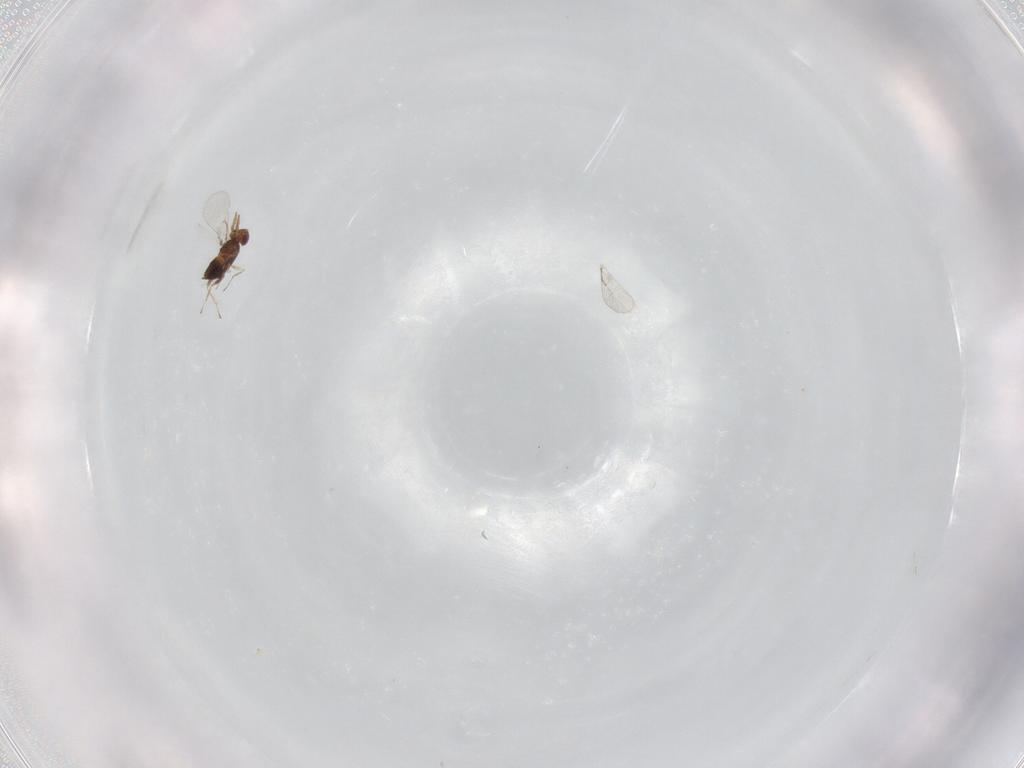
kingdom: Animalia
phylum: Arthropoda
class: Insecta
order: Hymenoptera
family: Trichogrammatidae
